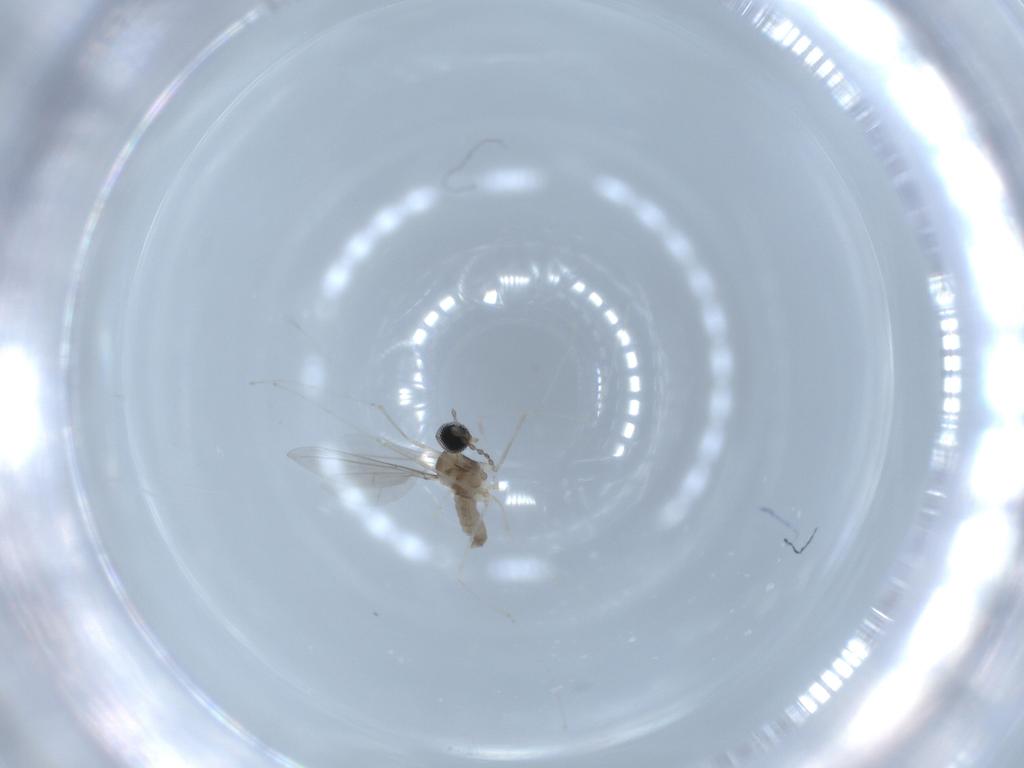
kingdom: Animalia
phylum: Arthropoda
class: Insecta
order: Diptera
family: Cecidomyiidae
